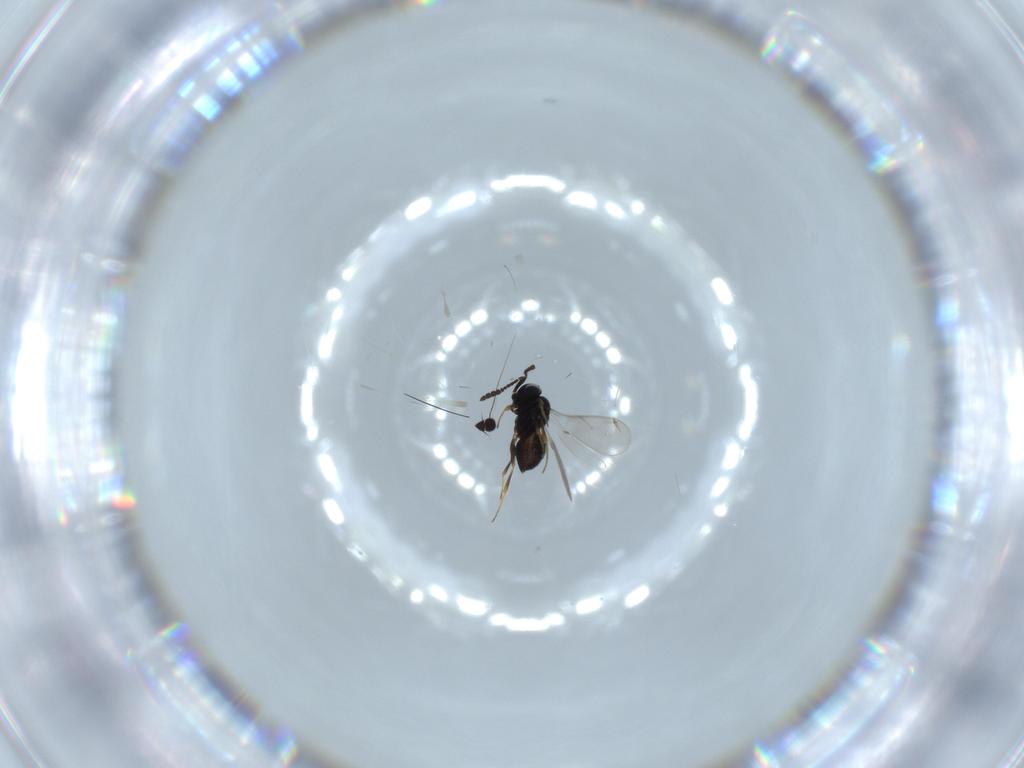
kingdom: Animalia
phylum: Arthropoda
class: Insecta
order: Hymenoptera
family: Scelionidae
